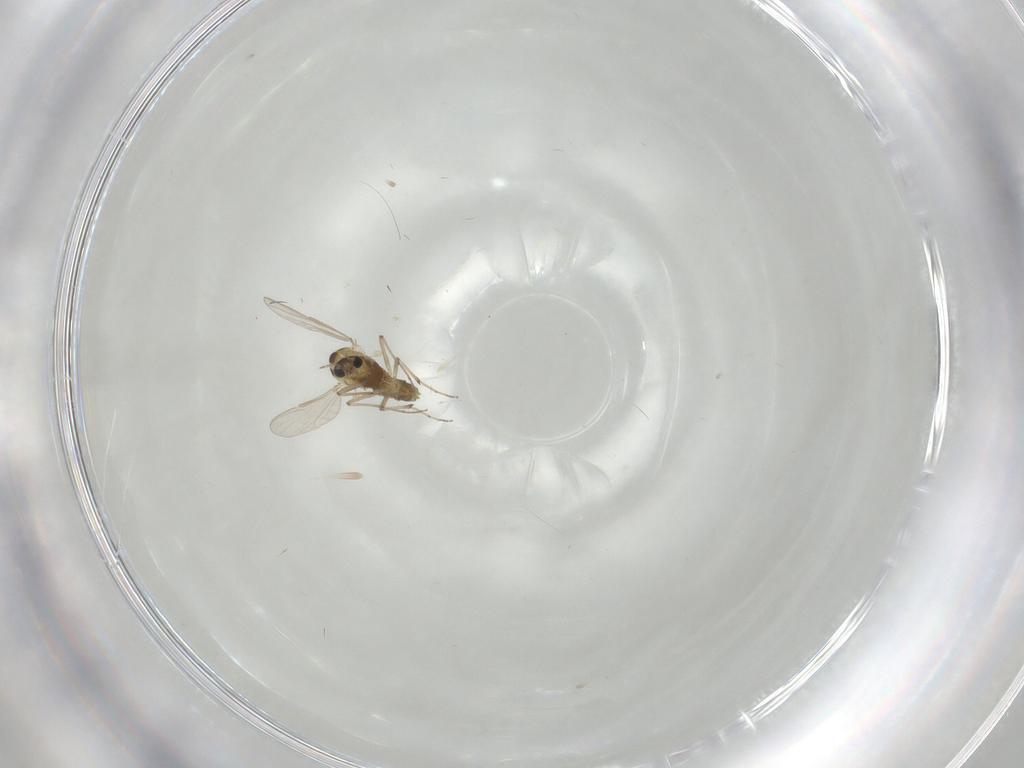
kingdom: Animalia
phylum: Arthropoda
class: Insecta
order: Diptera
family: Chironomidae
